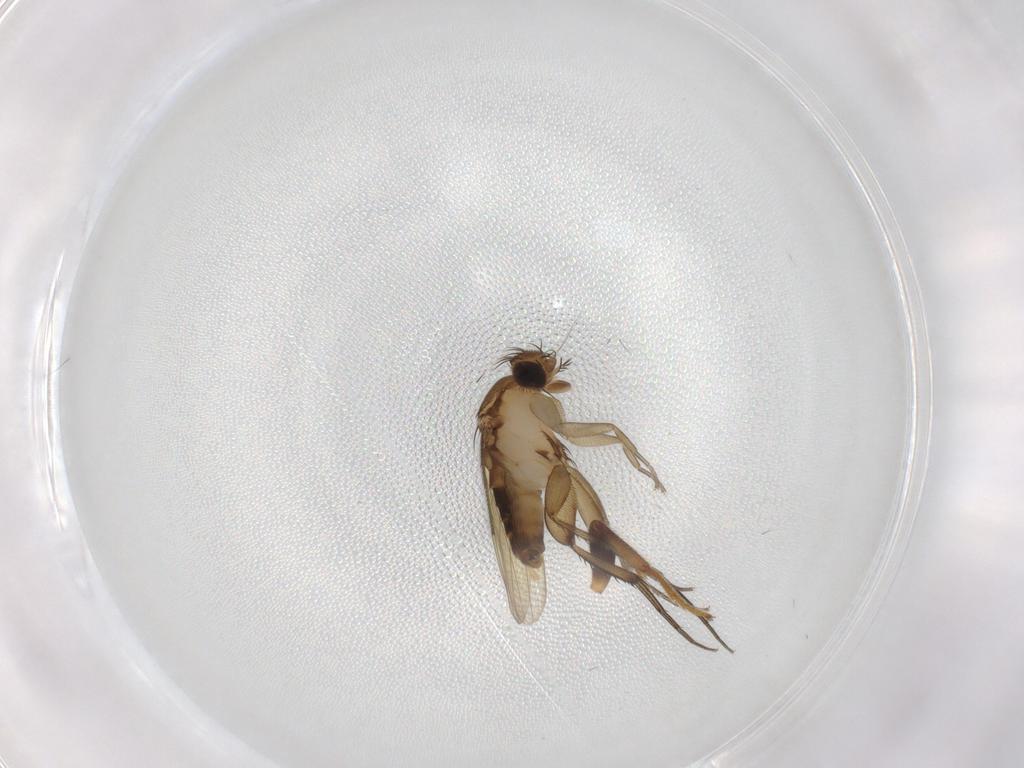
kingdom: Animalia
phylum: Arthropoda
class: Insecta
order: Diptera
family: Phoridae
